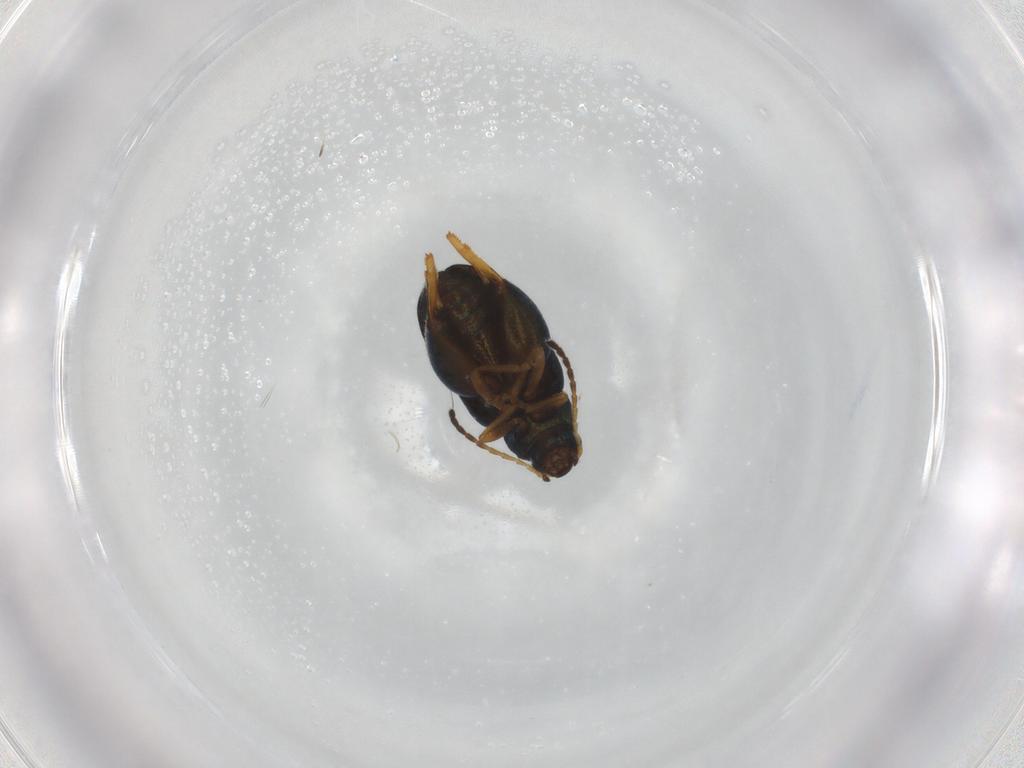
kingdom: Animalia
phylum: Arthropoda
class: Insecta
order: Coleoptera
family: Chrysomelidae
